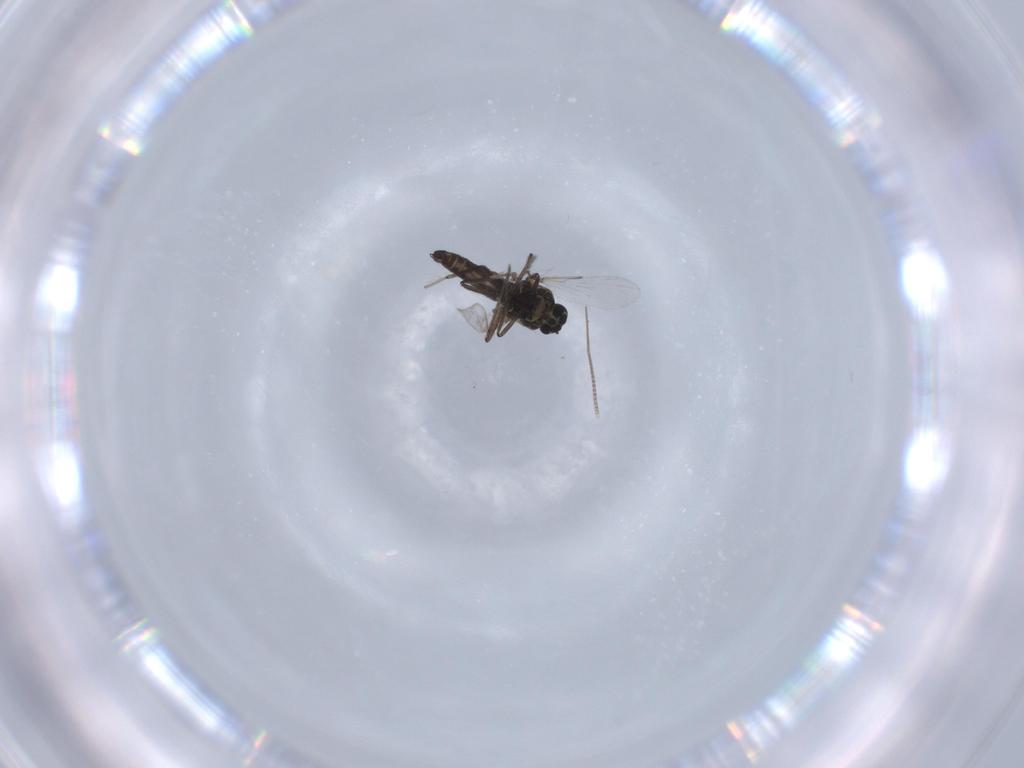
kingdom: Animalia
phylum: Arthropoda
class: Insecta
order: Diptera
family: Ceratopogonidae
